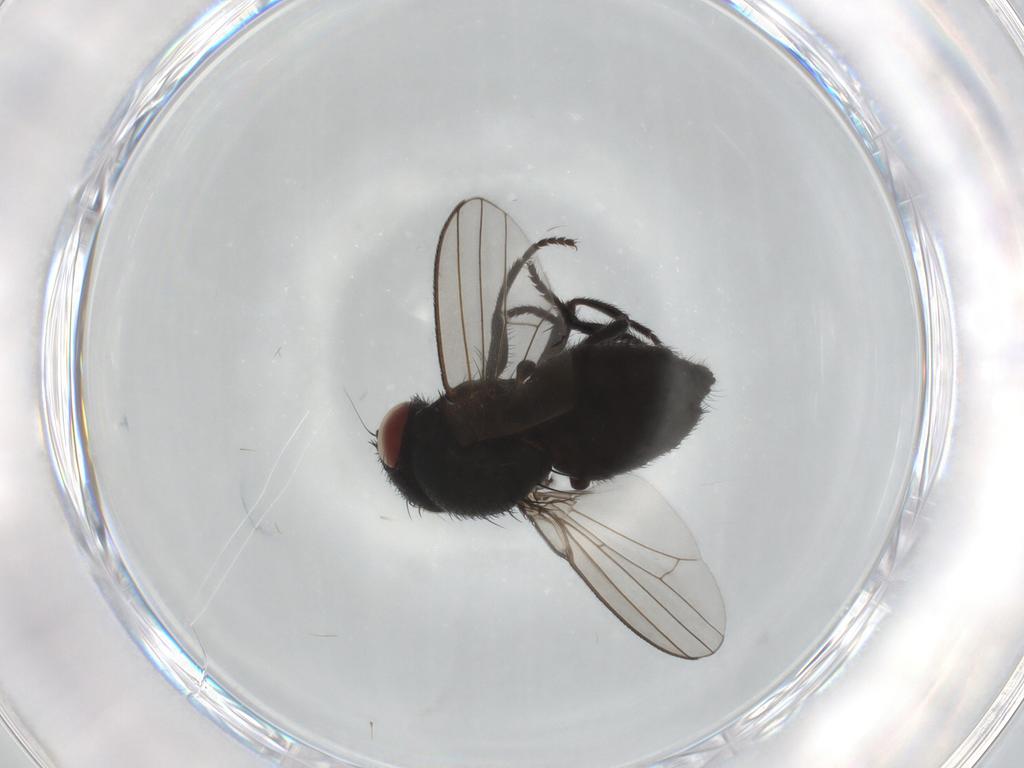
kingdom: Animalia
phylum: Arthropoda
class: Insecta
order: Diptera
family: Milichiidae
